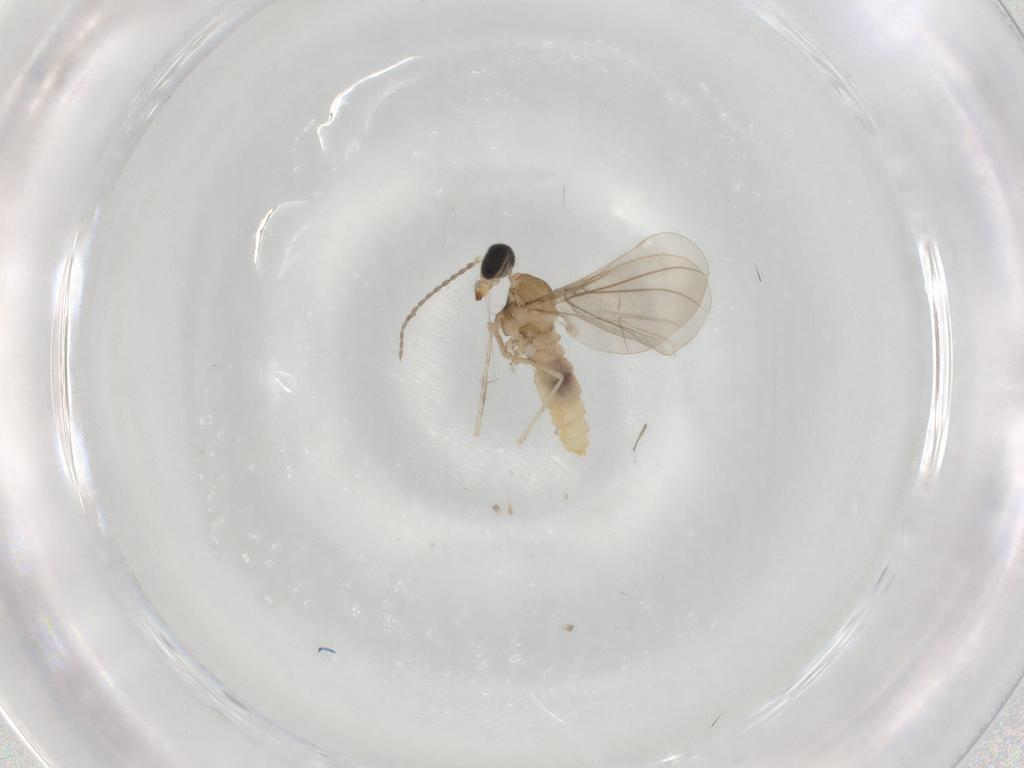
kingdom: Animalia
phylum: Arthropoda
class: Insecta
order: Diptera
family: Cecidomyiidae
